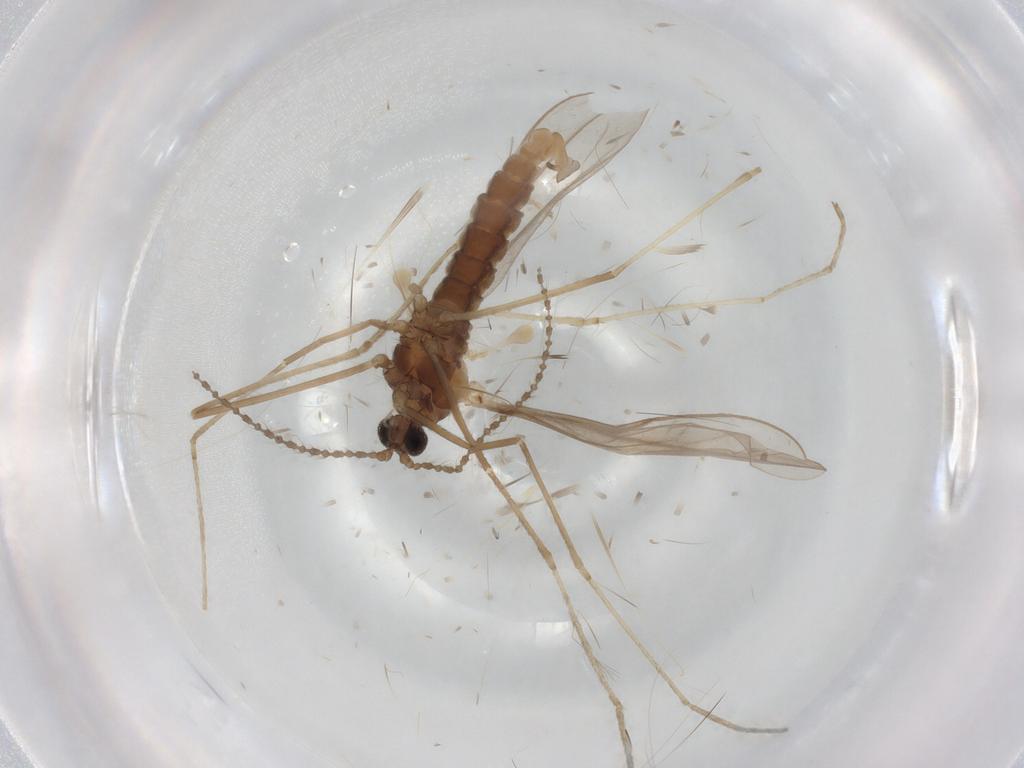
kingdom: Animalia
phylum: Arthropoda
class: Insecta
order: Diptera
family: Cecidomyiidae
